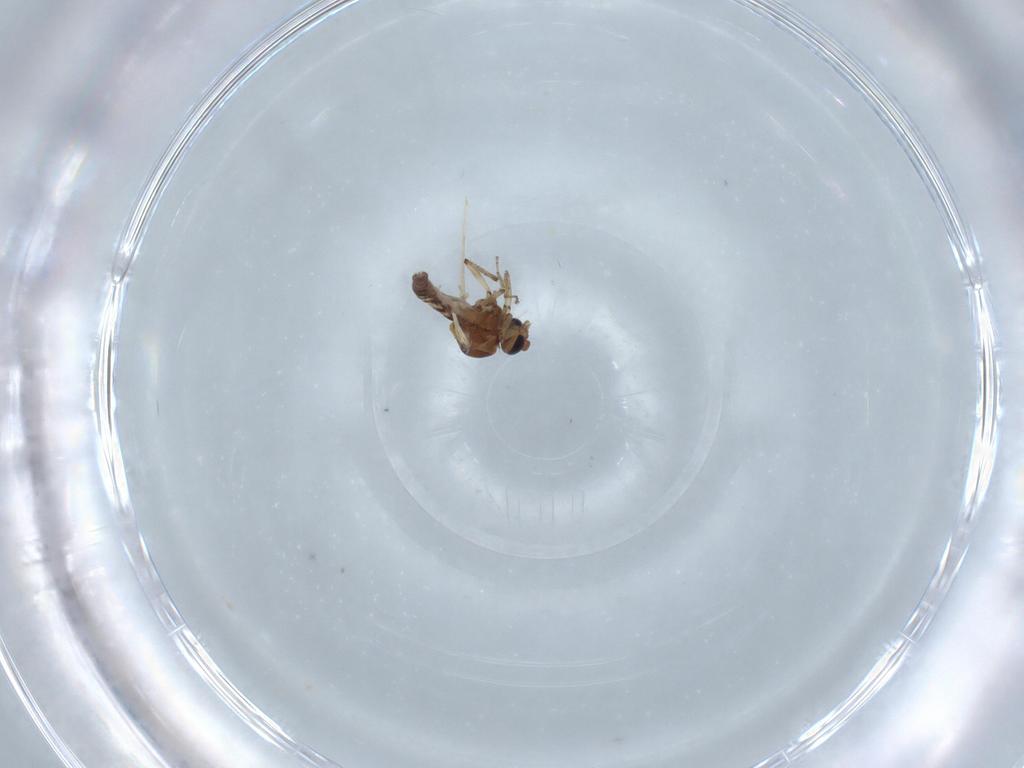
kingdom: Animalia
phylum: Arthropoda
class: Insecta
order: Diptera
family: Ceratopogonidae
